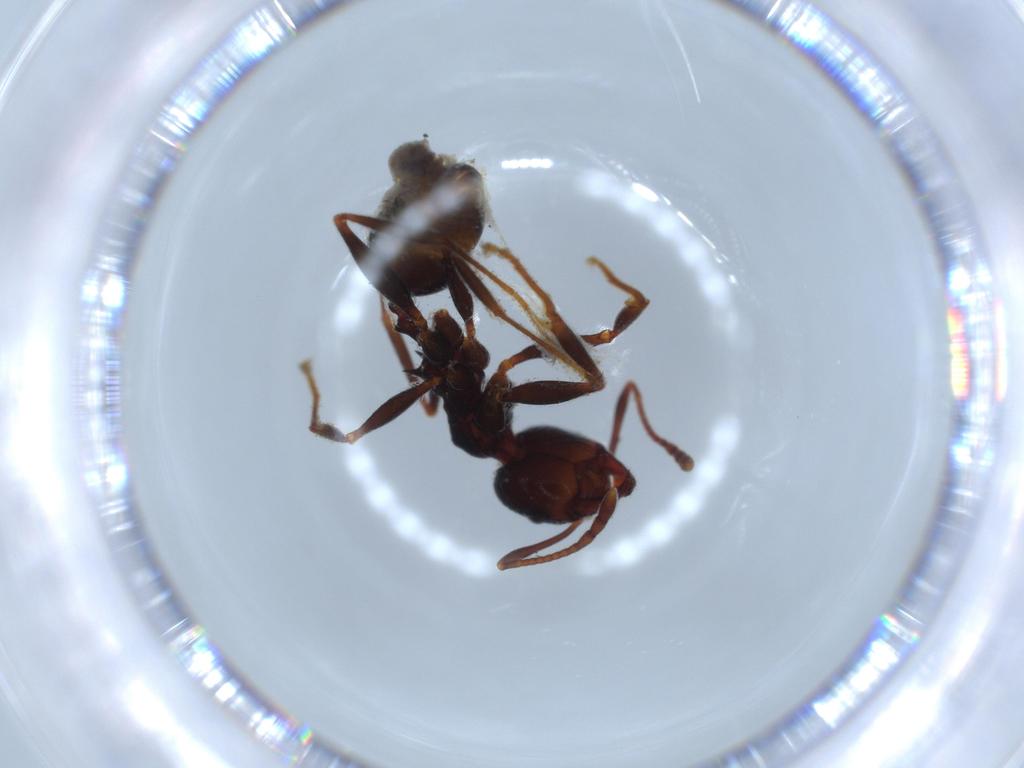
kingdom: Animalia
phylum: Arthropoda
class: Insecta
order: Hymenoptera
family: Formicidae
